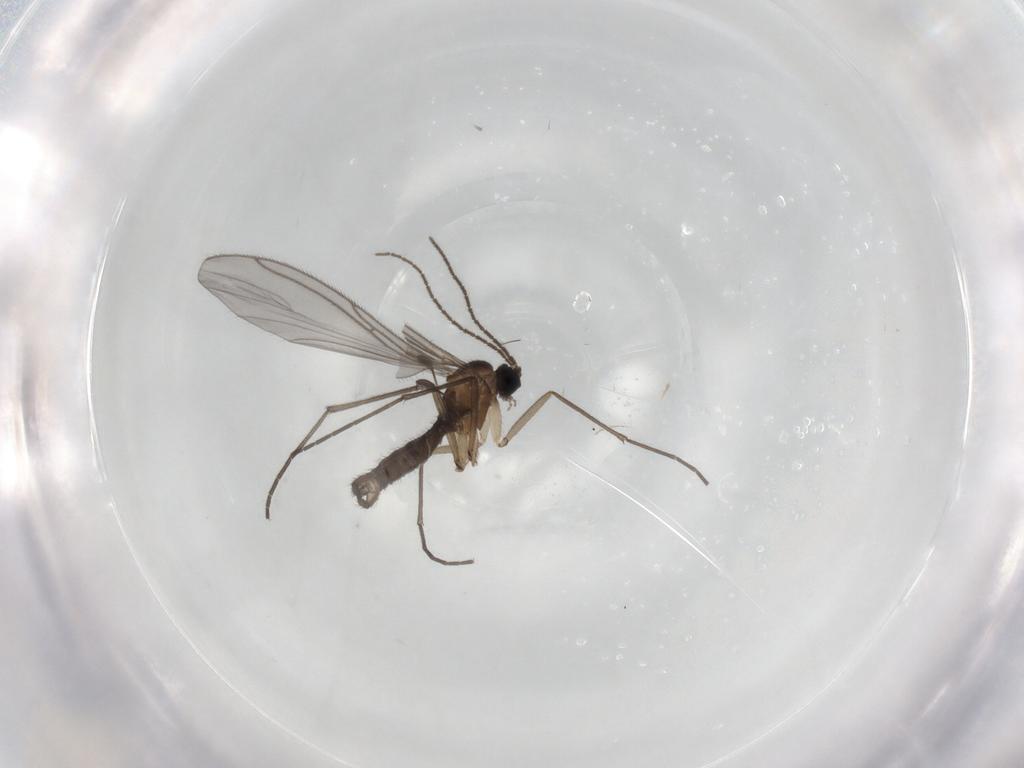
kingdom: Animalia
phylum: Arthropoda
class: Insecta
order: Diptera
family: Sciaridae
